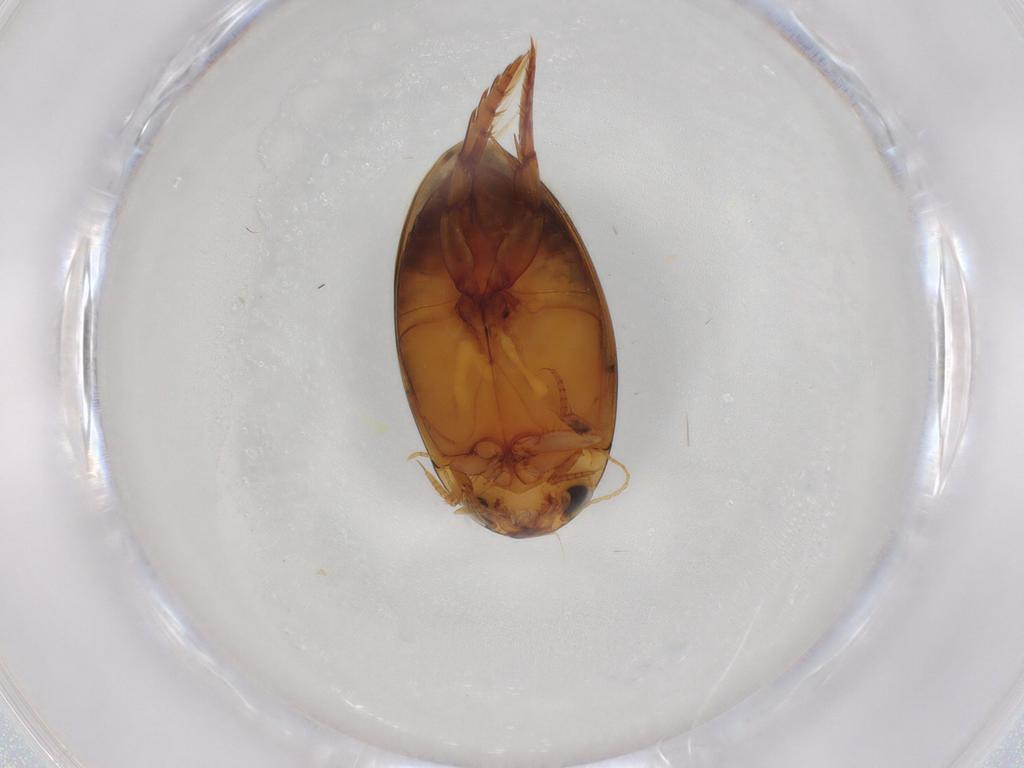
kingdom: Animalia
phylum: Arthropoda
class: Insecta
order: Coleoptera
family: Dytiscidae
